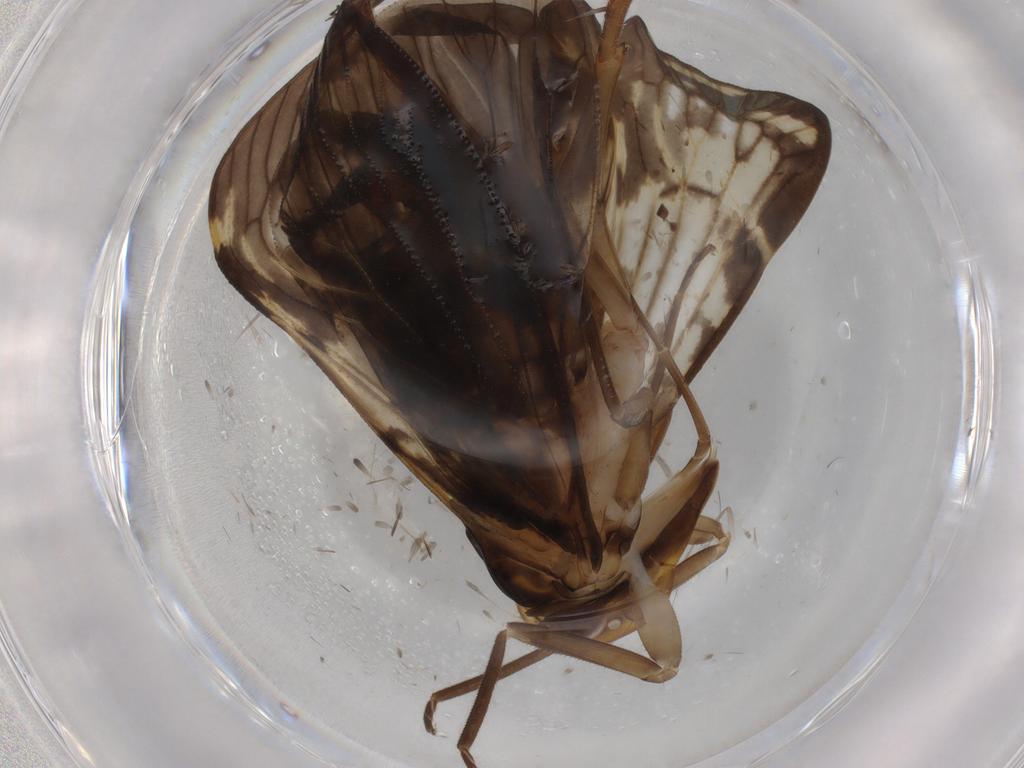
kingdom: Animalia
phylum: Arthropoda
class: Insecta
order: Hemiptera
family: Cixiidae
